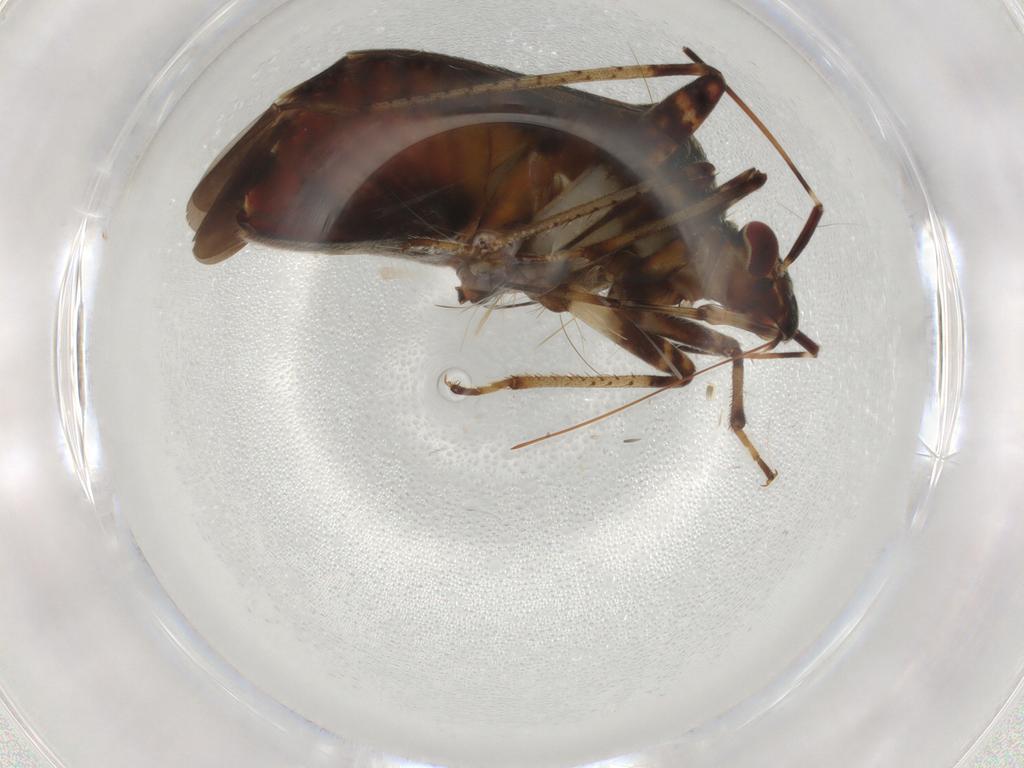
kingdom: Animalia
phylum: Arthropoda
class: Insecta
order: Hemiptera
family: Miridae
